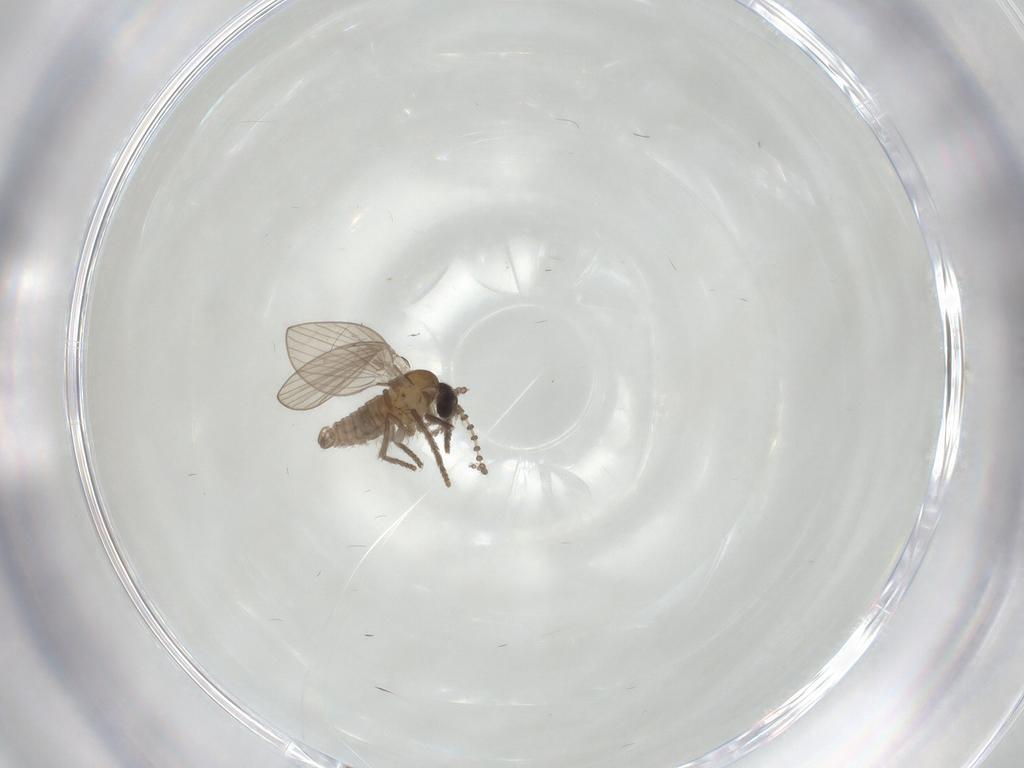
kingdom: Animalia
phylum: Arthropoda
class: Insecta
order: Diptera
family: Psychodidae
